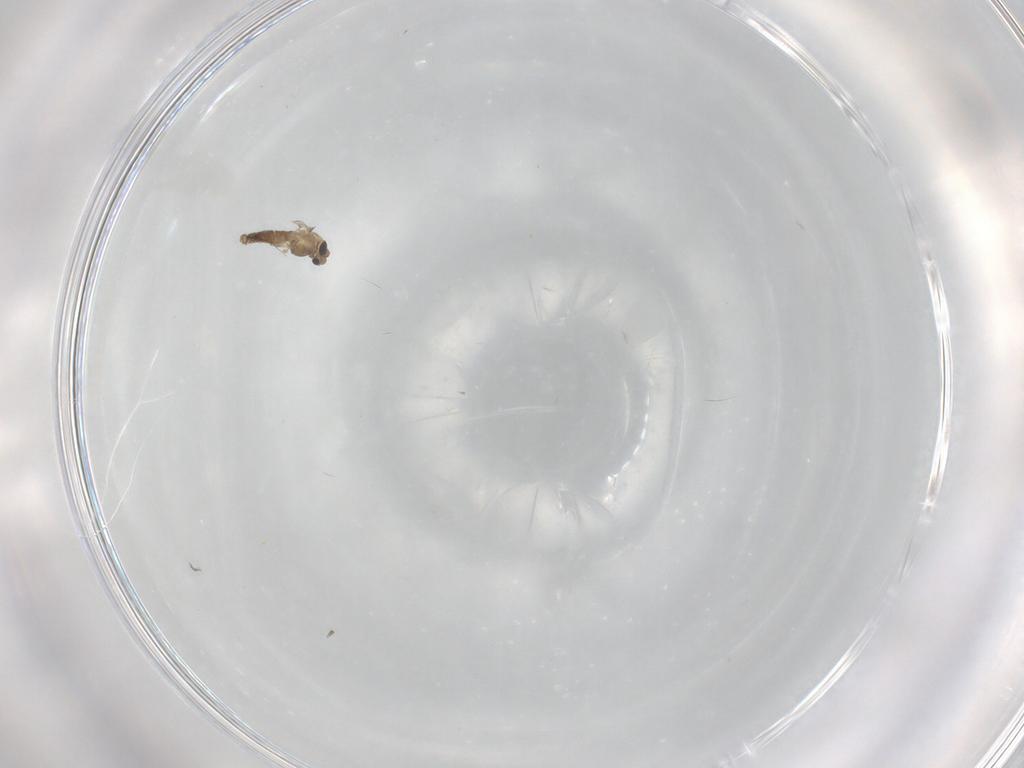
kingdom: Animalia
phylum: Arthropoda
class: Insecta
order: Diptera
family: Chironomidae
